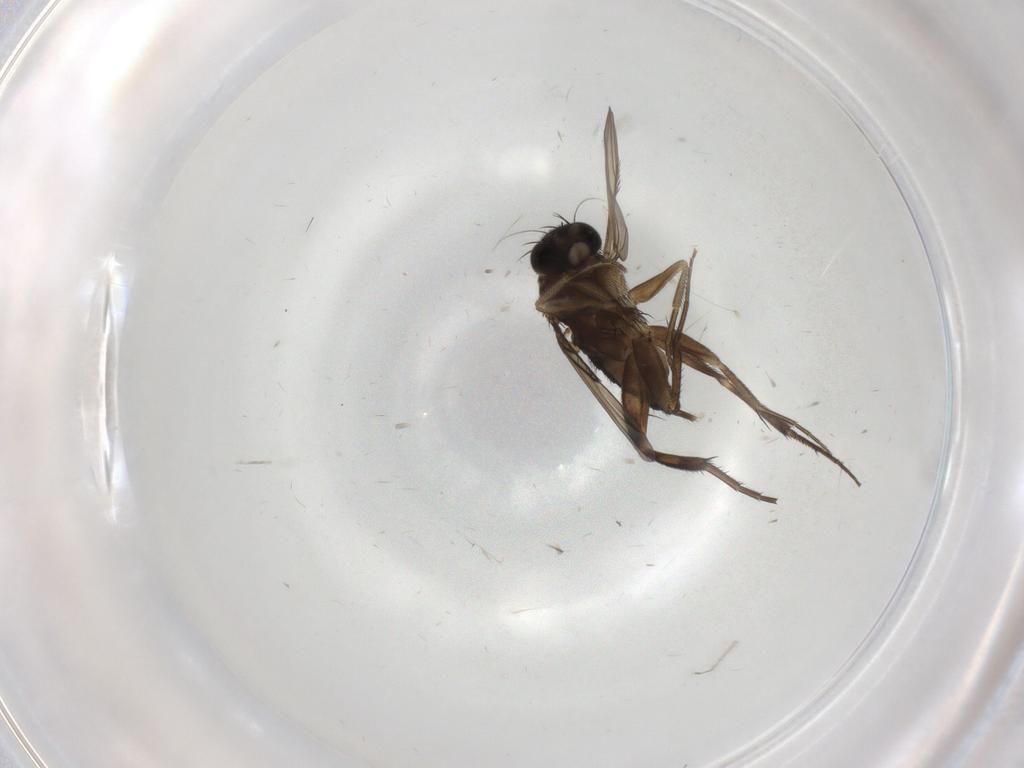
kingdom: Animalia
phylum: Arthropoda
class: Insecta
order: Diptera
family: Phoridae
